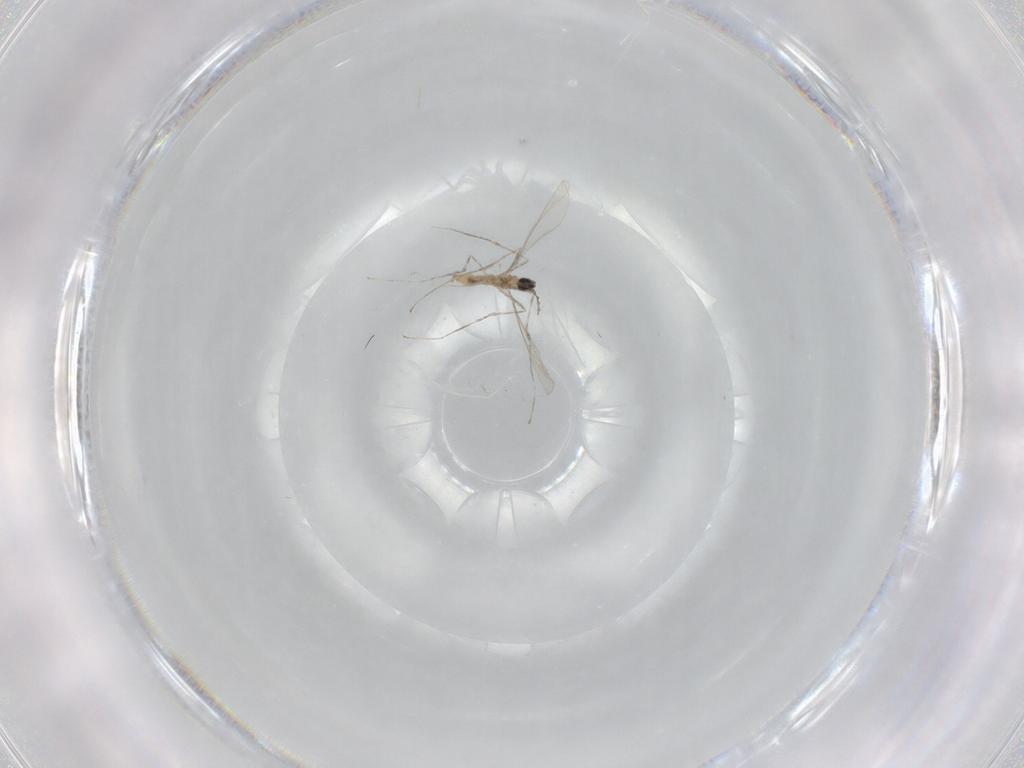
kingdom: Animalia
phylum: Arthropoda
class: Insecta
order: Diptera
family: Cecidomyiidae
